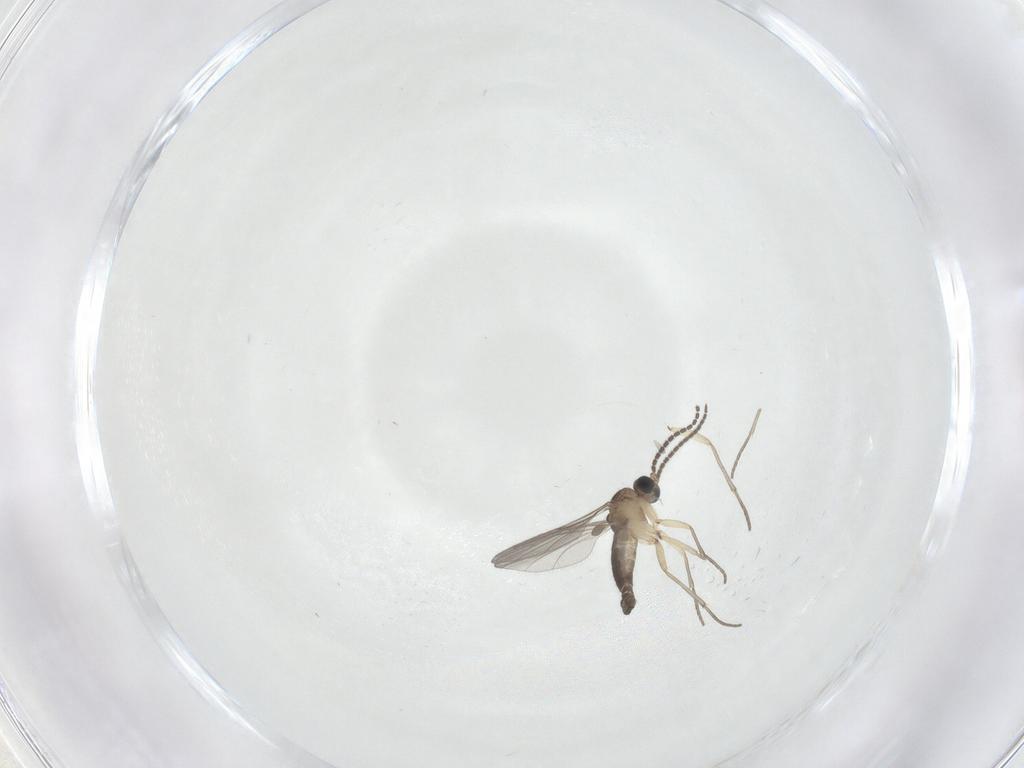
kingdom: Animalia
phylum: Arthropoda
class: Insecta
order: Diptera
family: Sciaridae
